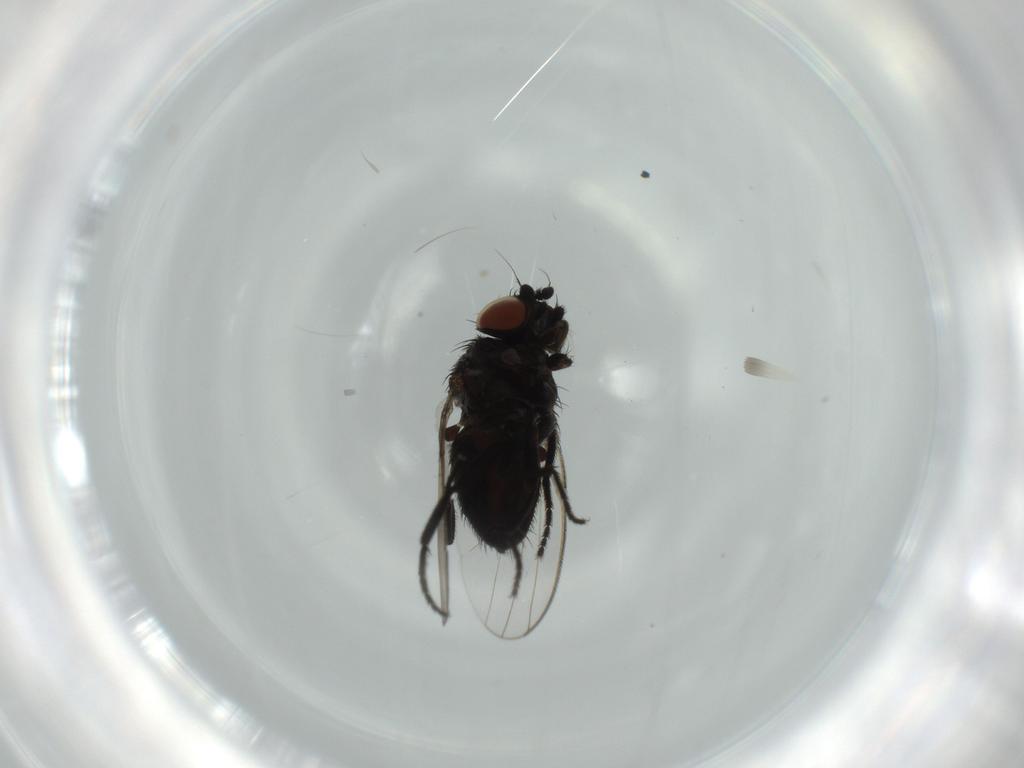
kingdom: Animalia
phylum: Arthropoda
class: Insecta
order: Diptera
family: Milichiidae
